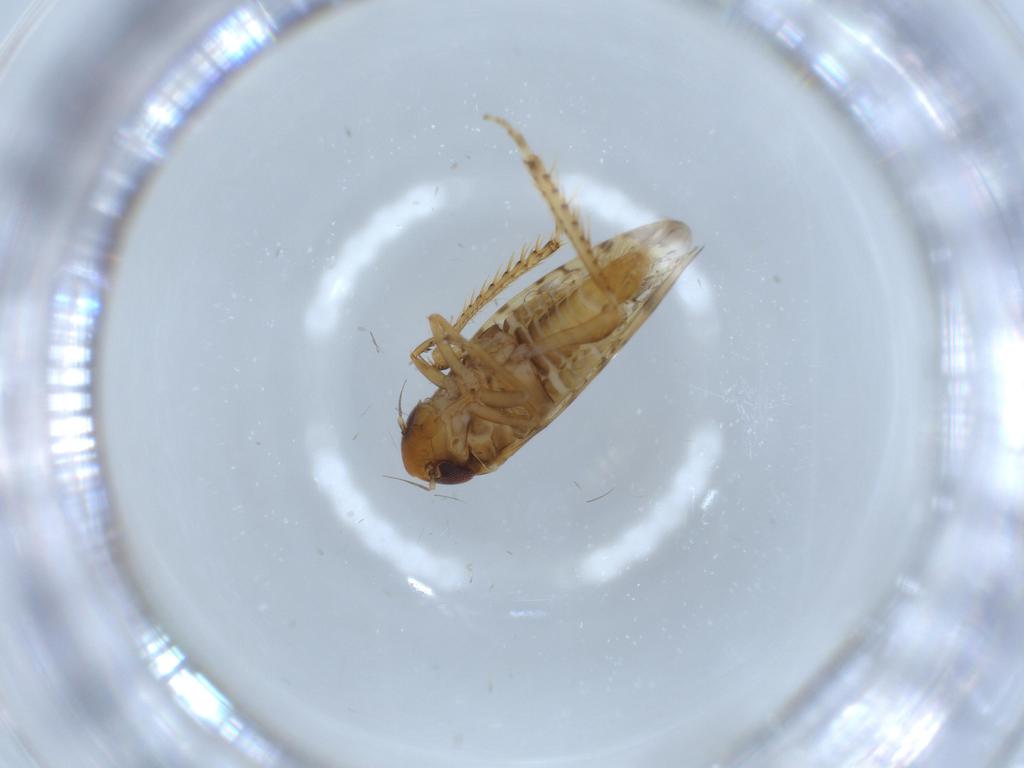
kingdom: Animalia
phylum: Arthropoda
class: Insecta
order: Hemiptera
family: Cicadellidae
